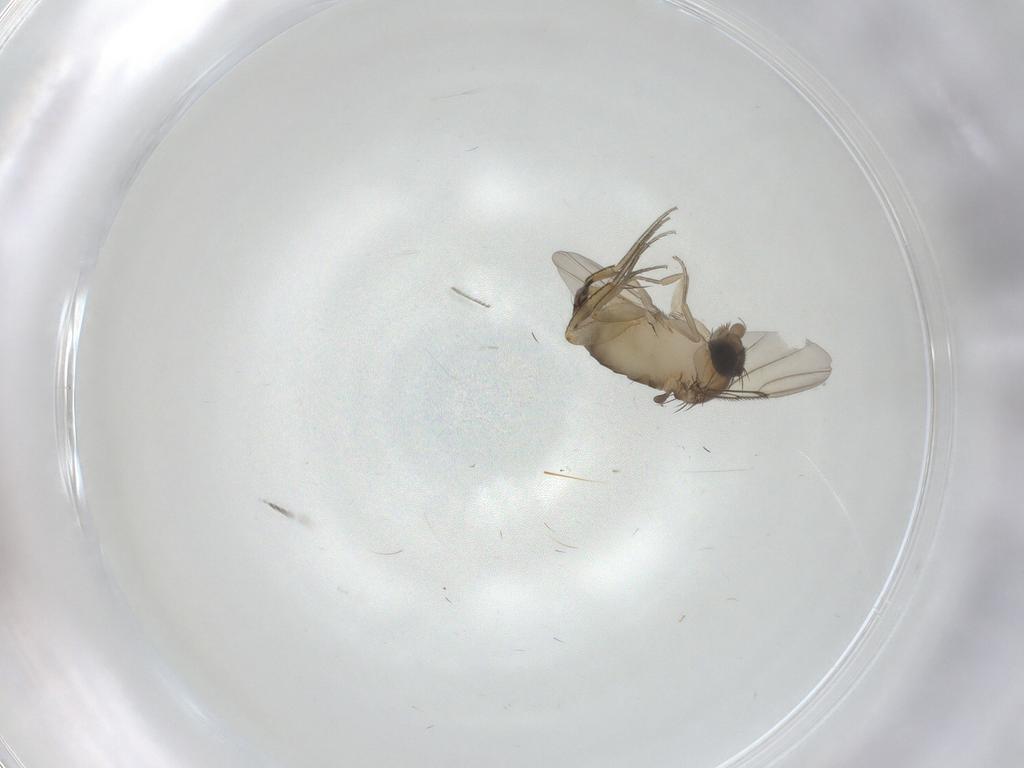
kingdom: Animalia
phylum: Arthropoda
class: Insecta
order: Diptera
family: Phoridae
